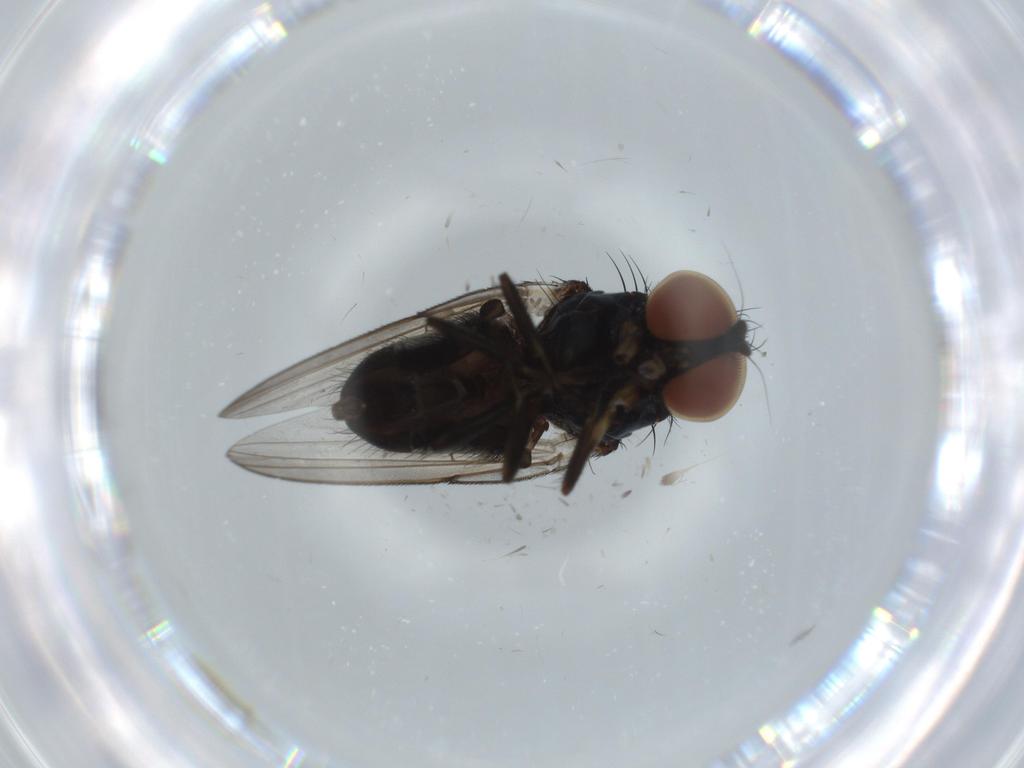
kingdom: Animalia
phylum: Arthropoda
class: Insecta
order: Diptera
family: Milichiidae
